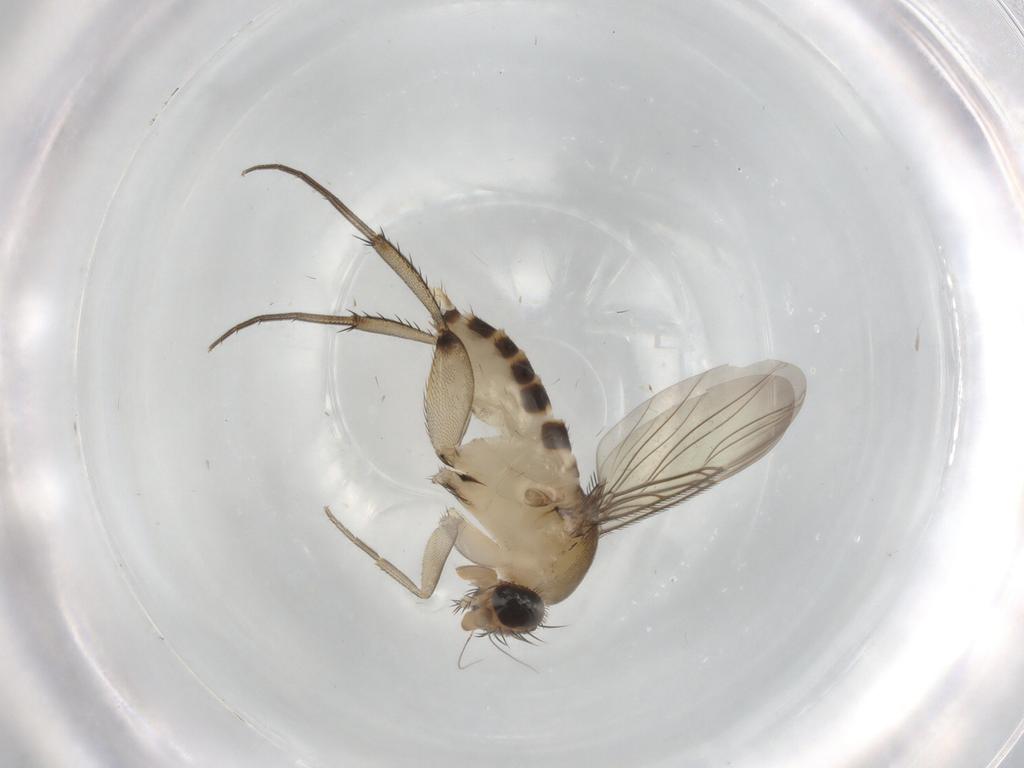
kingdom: Animalia
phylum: Arthropoda
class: Insecta
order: Diptera
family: Phoridae
